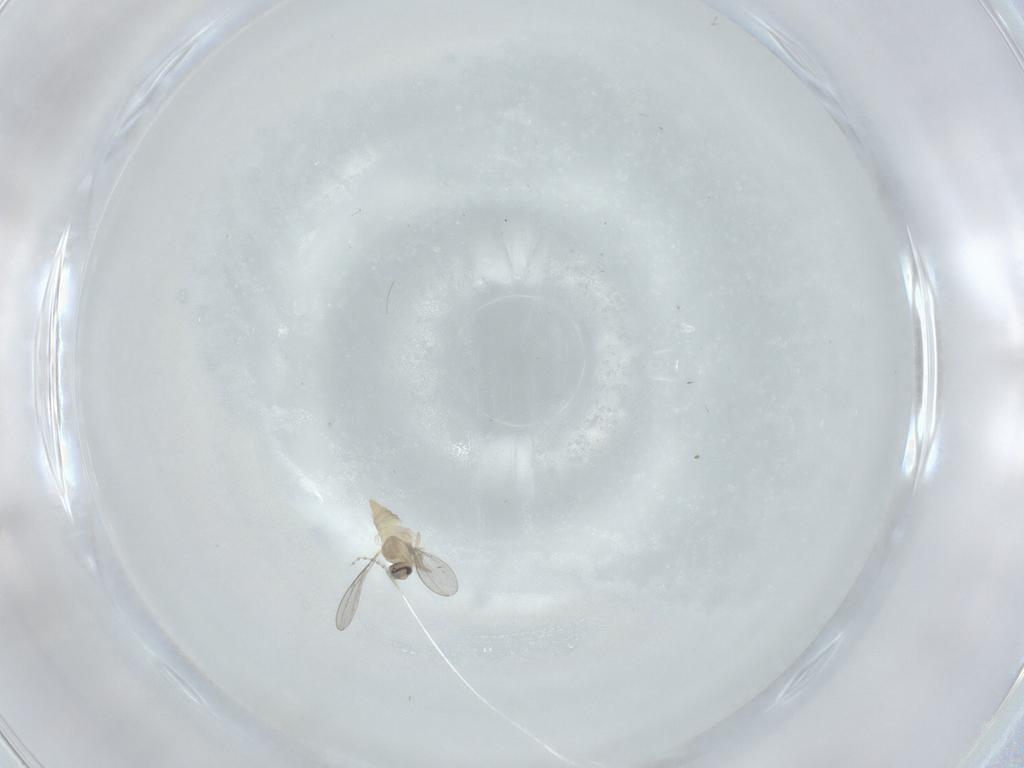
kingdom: Animalia
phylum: Arthropoda
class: Insecta
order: Diptera
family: Cecidomyiidae
